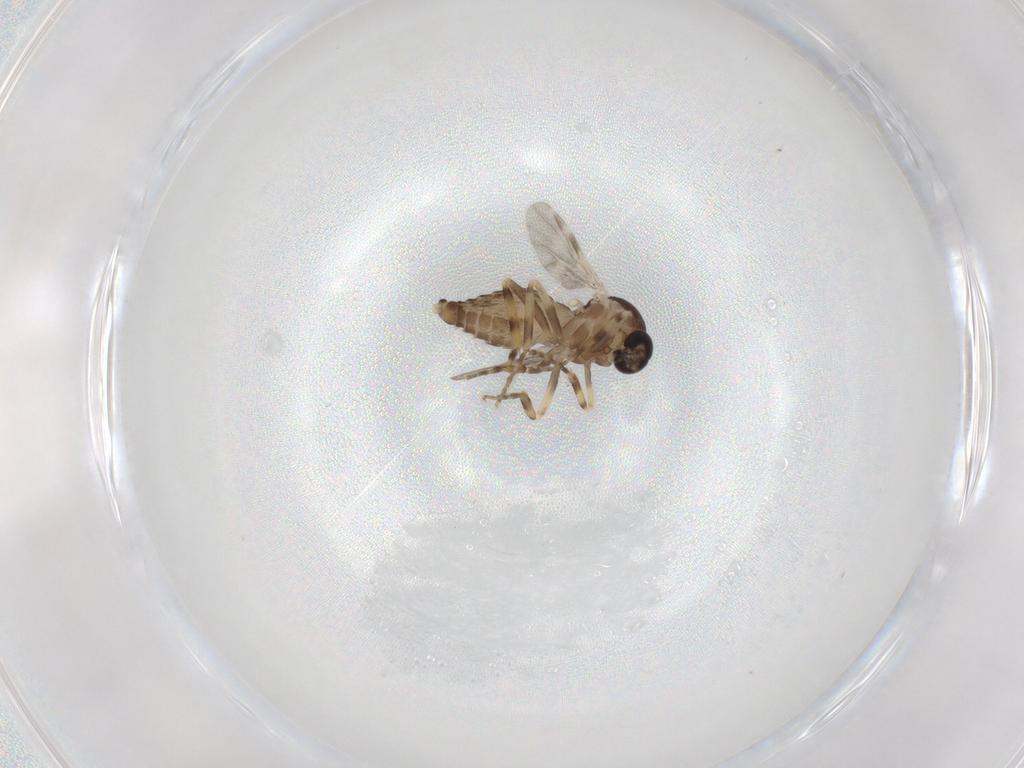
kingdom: Animalia
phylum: Arthropoda
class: Insecta
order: Diptera
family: Ceratopogonidae
